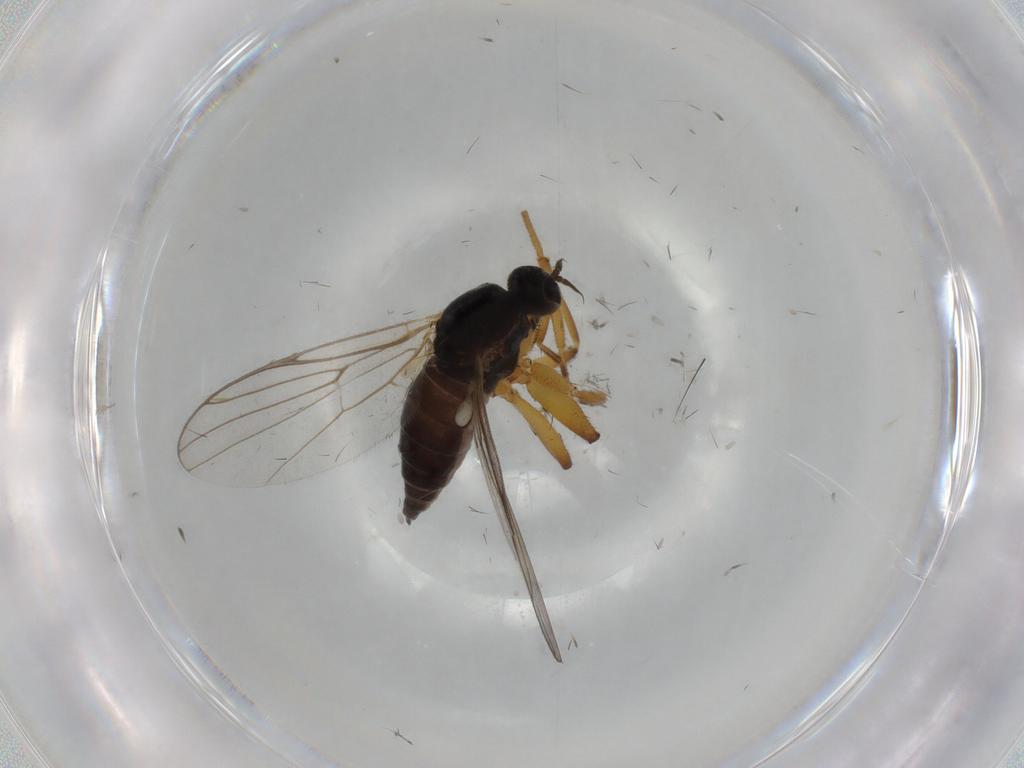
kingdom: Animalia
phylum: Arthropoda
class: Insecta
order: Diptera
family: Hybotidae
